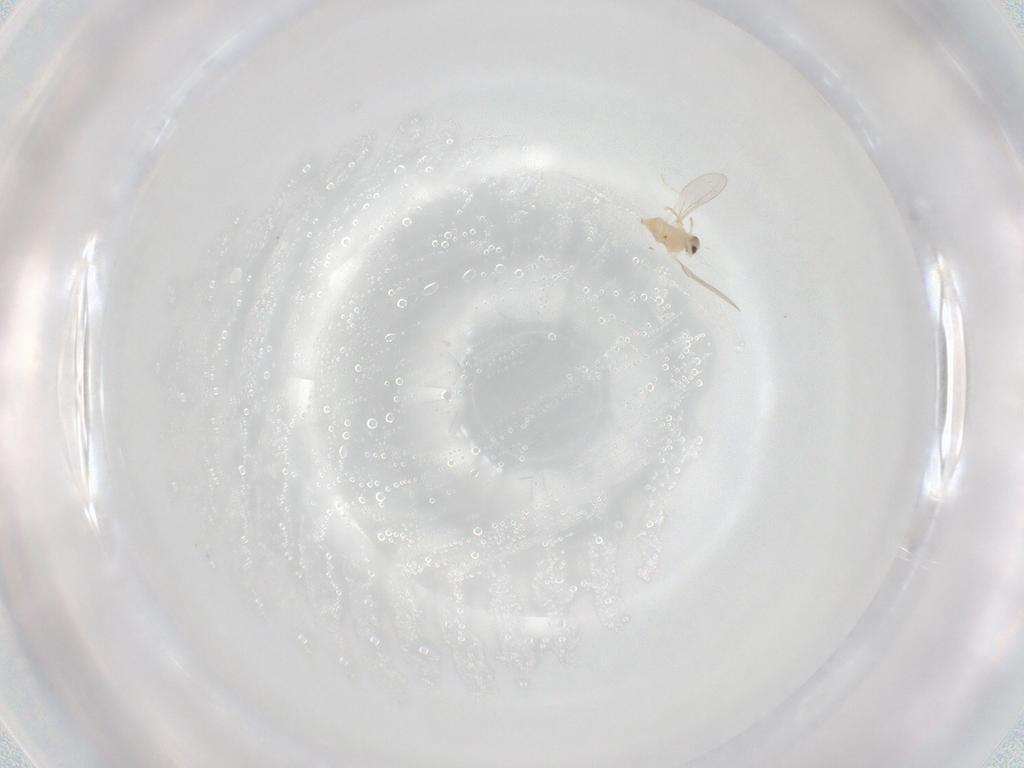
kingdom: Animalia
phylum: Arthropoda
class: Insecta
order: Diptera
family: Cecidomyiidae
